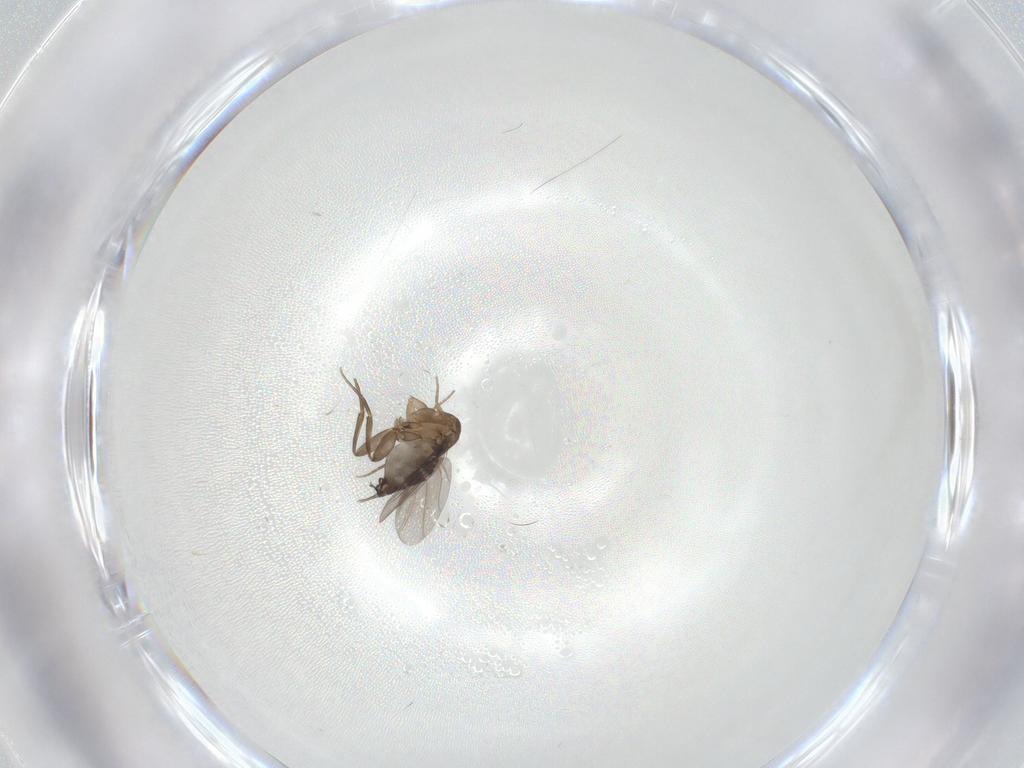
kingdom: Animalia
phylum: Arthropoda
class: Insecta
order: Diptera
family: Phoridae
